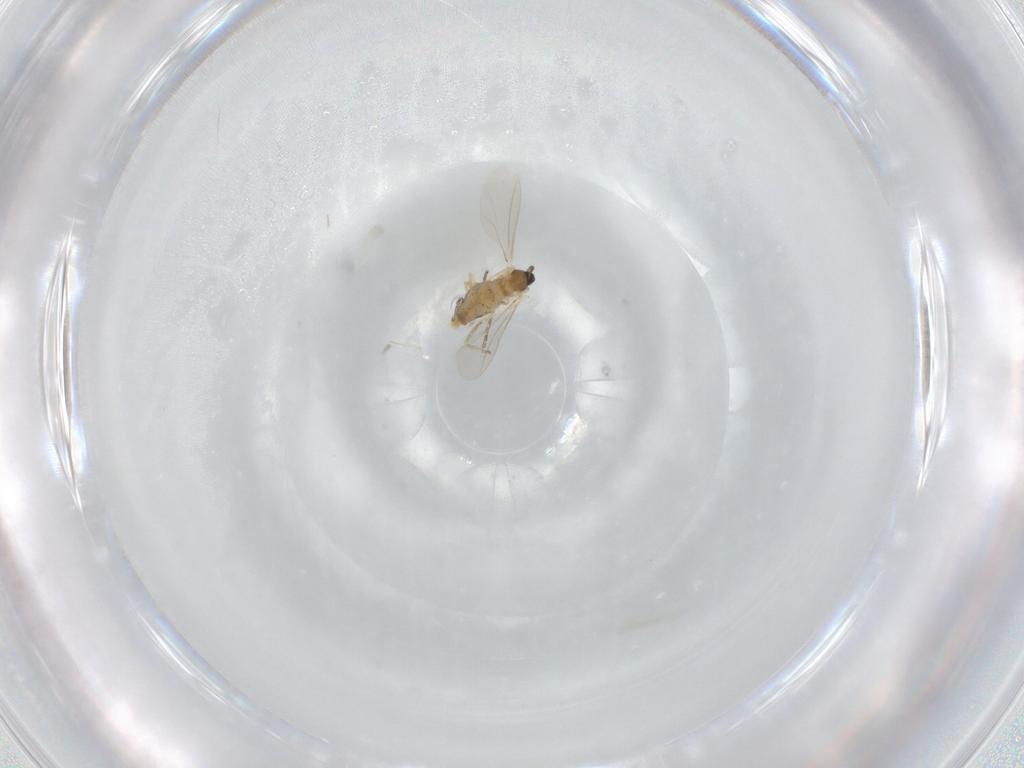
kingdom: Animalia
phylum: Arthropoda
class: Insecta
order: Diptera
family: Cecidomyiidae
